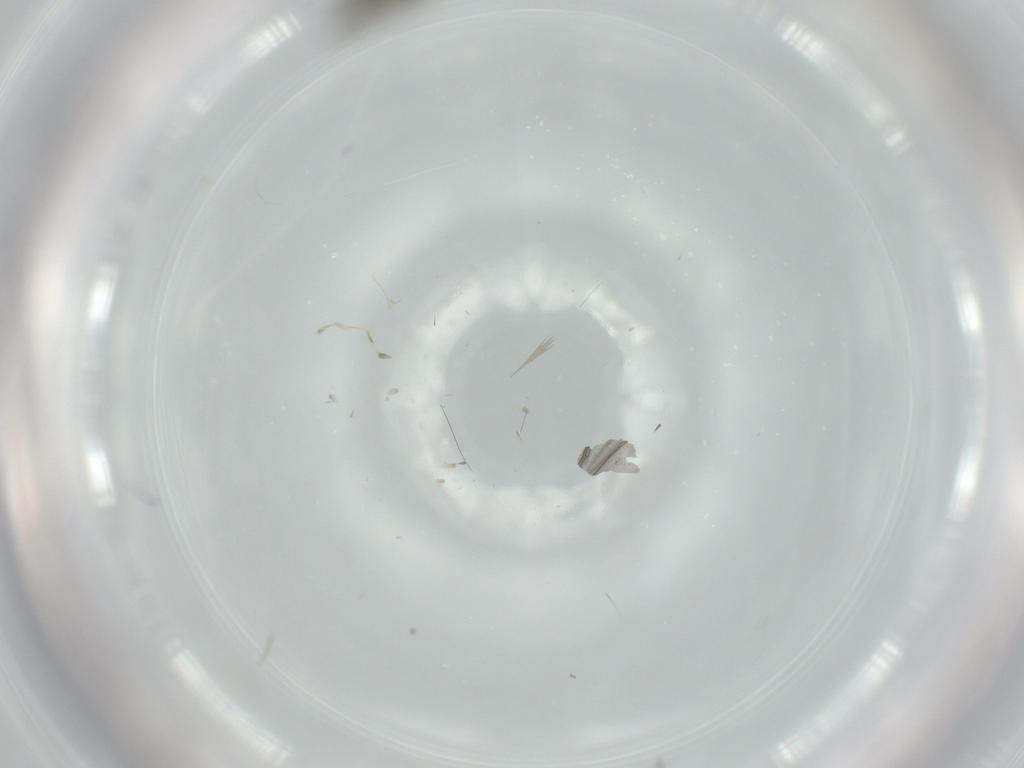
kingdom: Animalia
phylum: Arthropoda
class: Insecta
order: Diptera
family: Sciaridae
